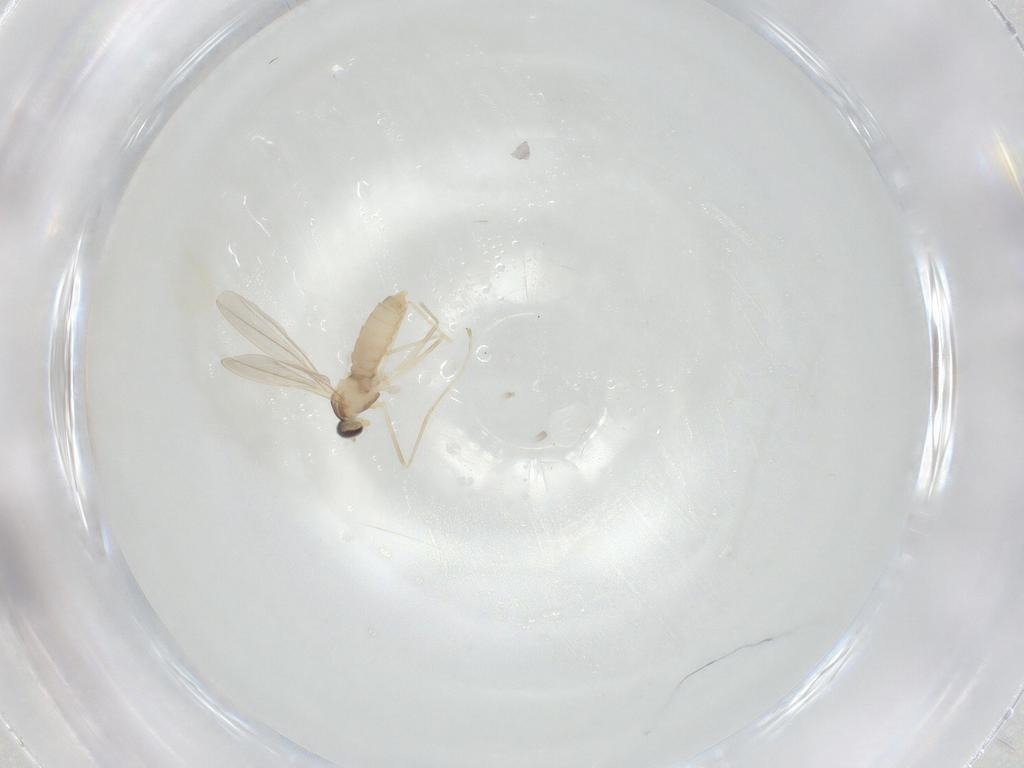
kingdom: Animalia
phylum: Arthropoda
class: Insecta
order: Diptera
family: Cecidomyiidae
